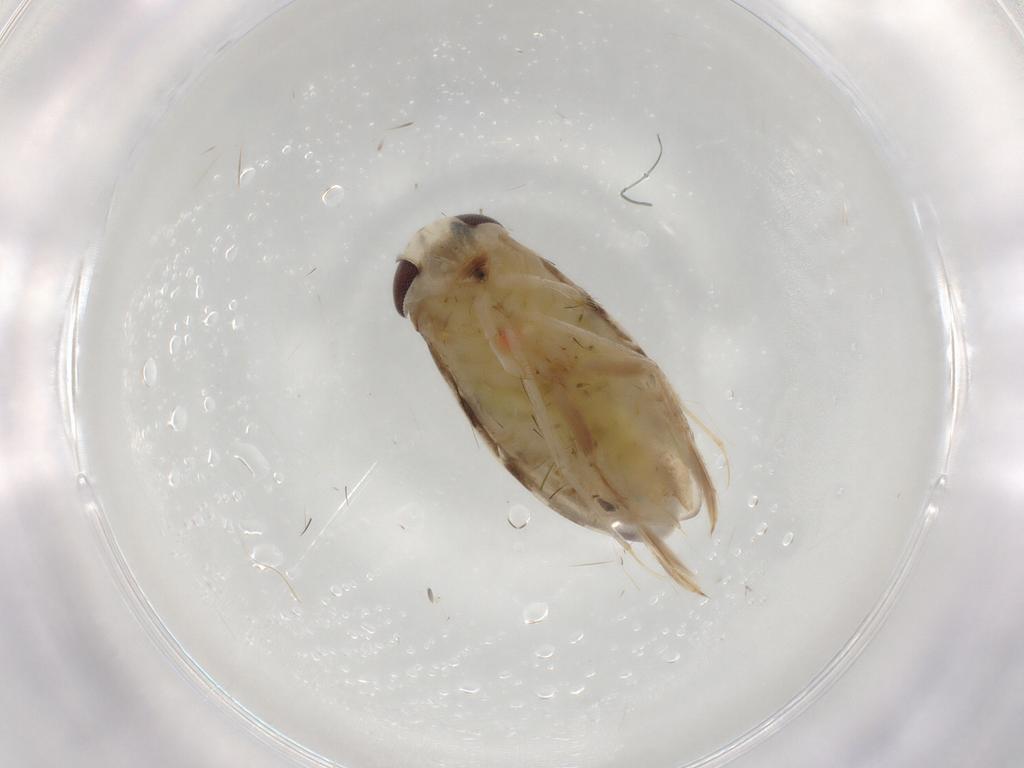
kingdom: Animalia
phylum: Arthropoda
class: Insecta
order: Hemiptera
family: Corixidae
